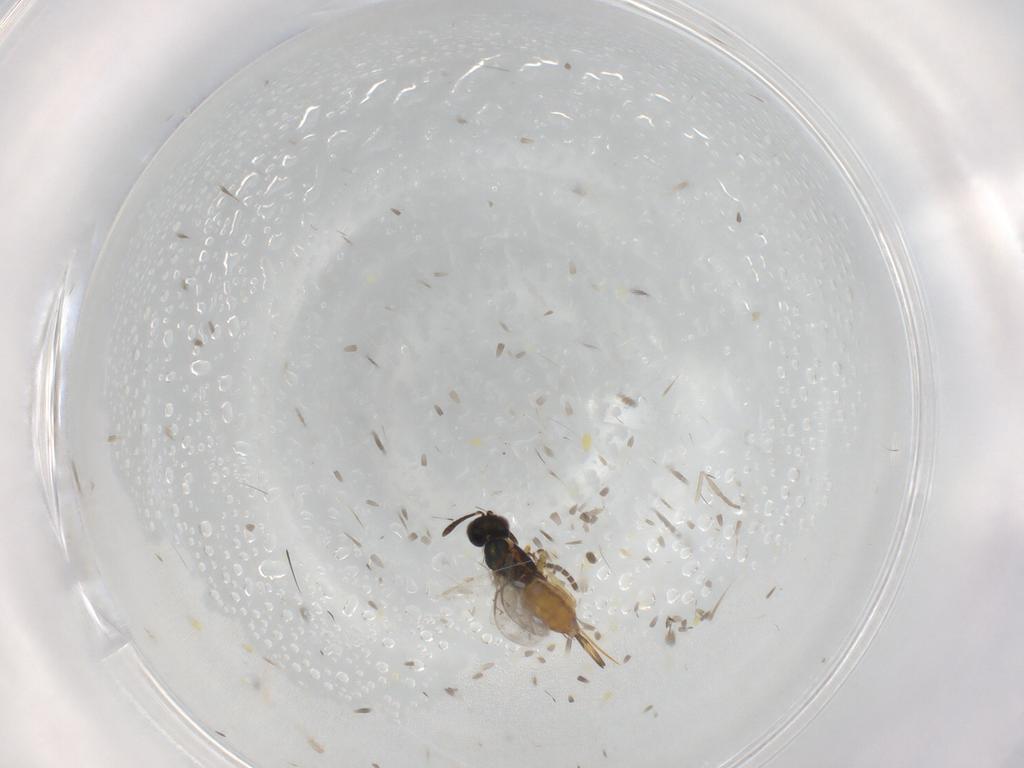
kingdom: Animalia
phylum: Arthropoda
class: Insecta
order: Hymenoptera
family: Eupelmidae
